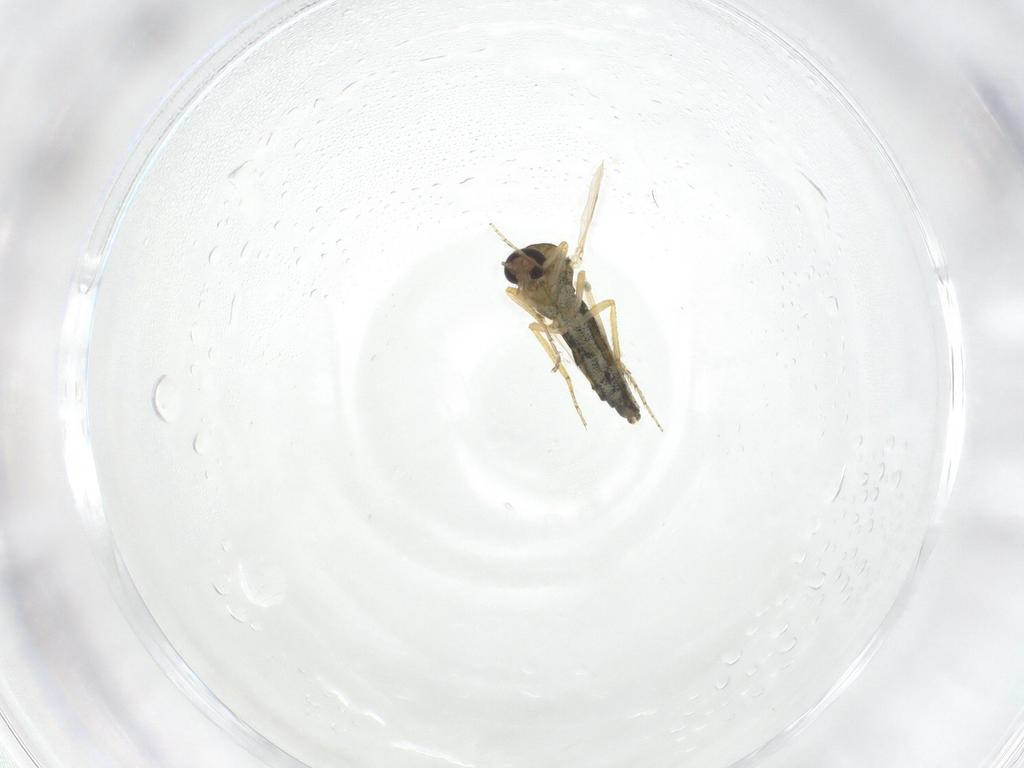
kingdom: Animalia
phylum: Arthropoda
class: Insecta
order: Diptera
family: Ceratopogonidae
